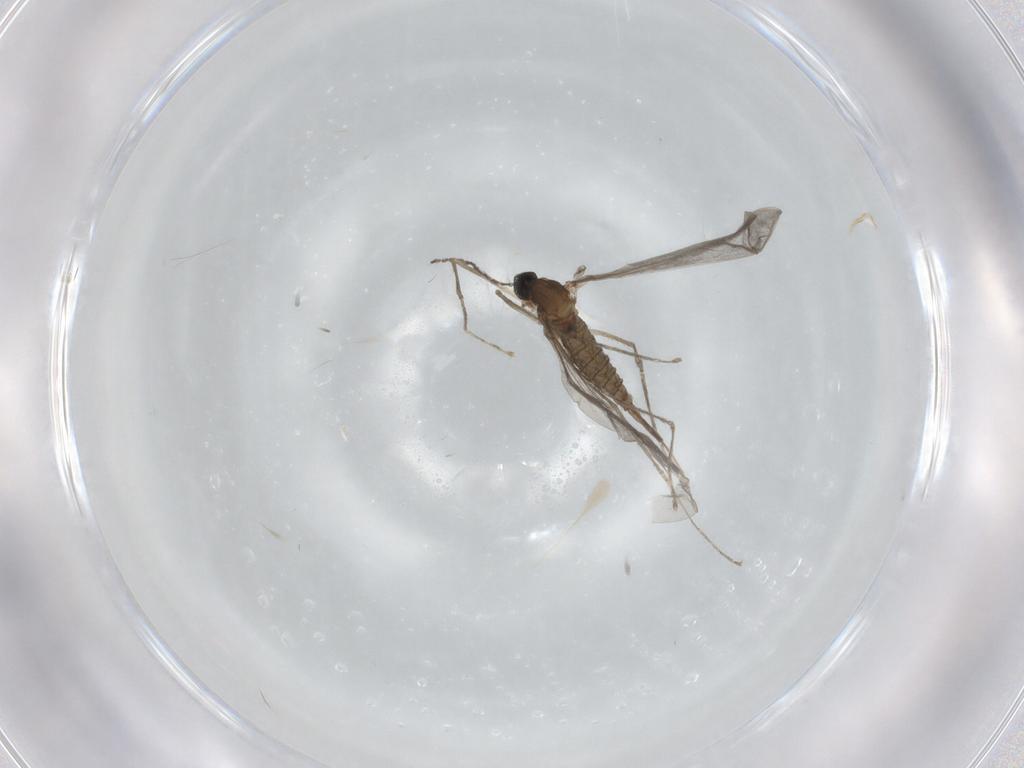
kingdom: Animalia
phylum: Arthropoda
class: Insecta
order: Diptera
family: Cecidomyiidae
